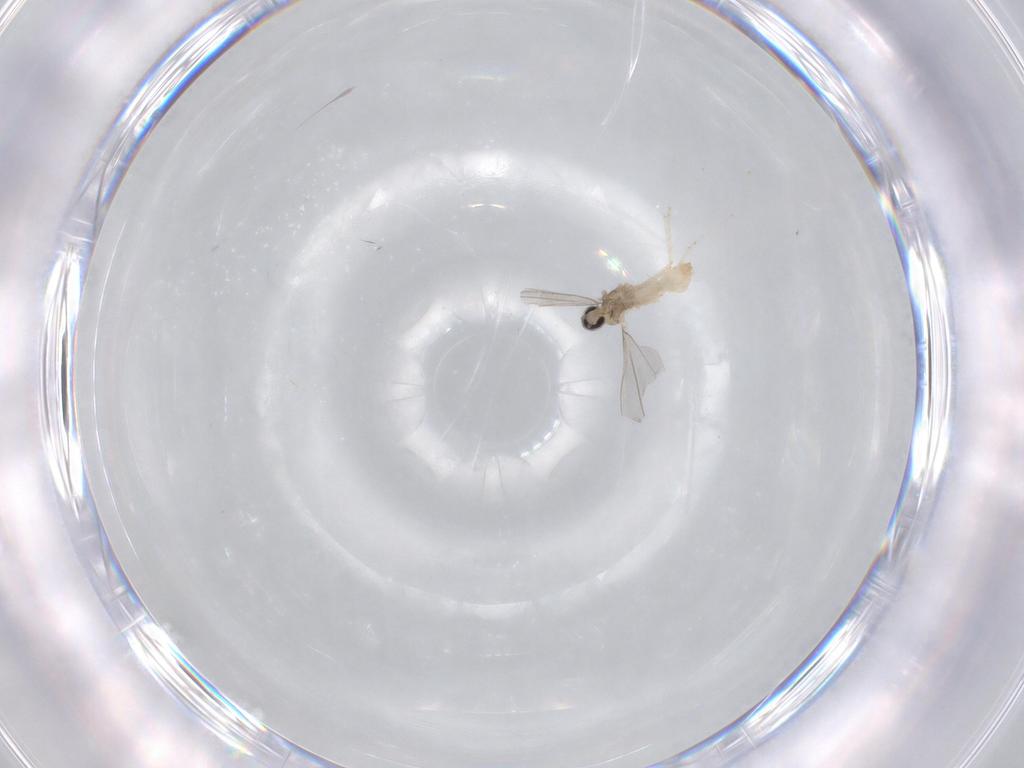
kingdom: Animalia
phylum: Arthropoda
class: Insecta
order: Diptera
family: Cecidomyiidae
